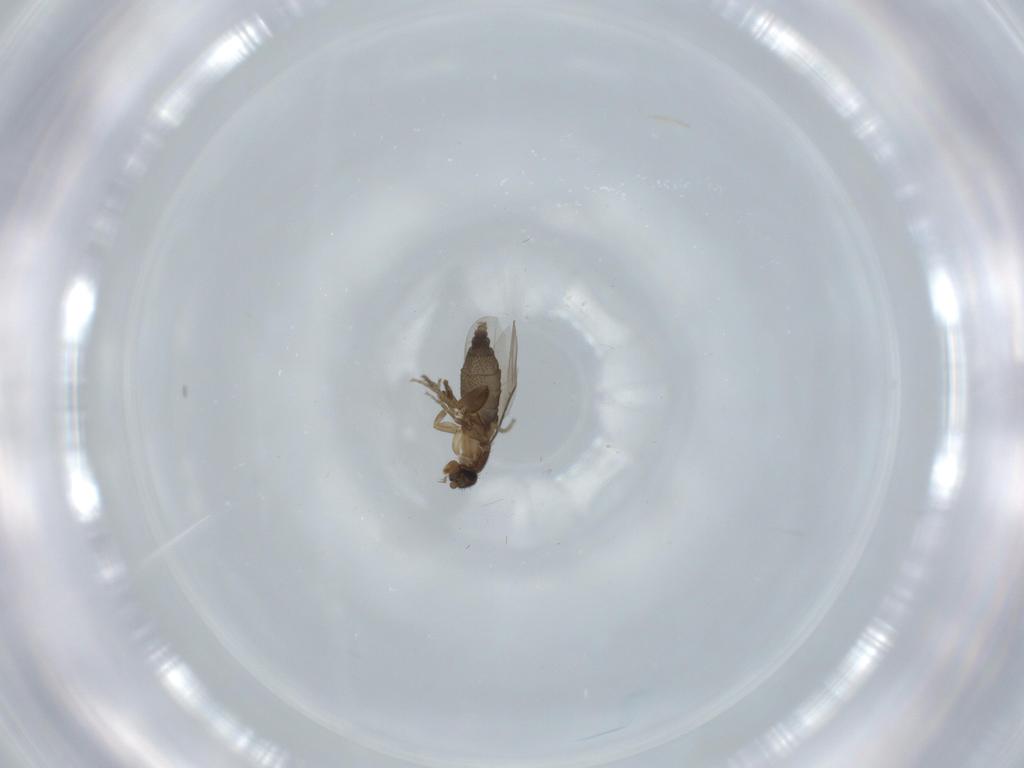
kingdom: Animalia
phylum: Arthropoda
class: Insecta
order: Diptera
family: Phoridae
